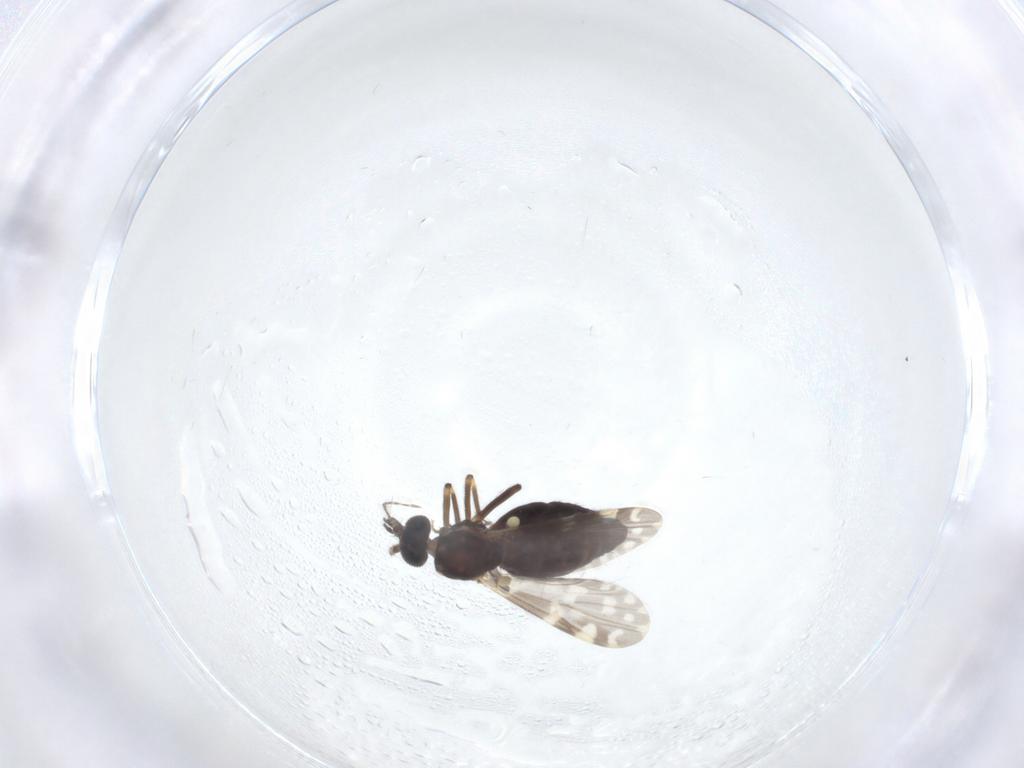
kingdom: Animalia
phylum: Arthropoda
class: Insecta
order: Diptera
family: Ceratopogonidae
